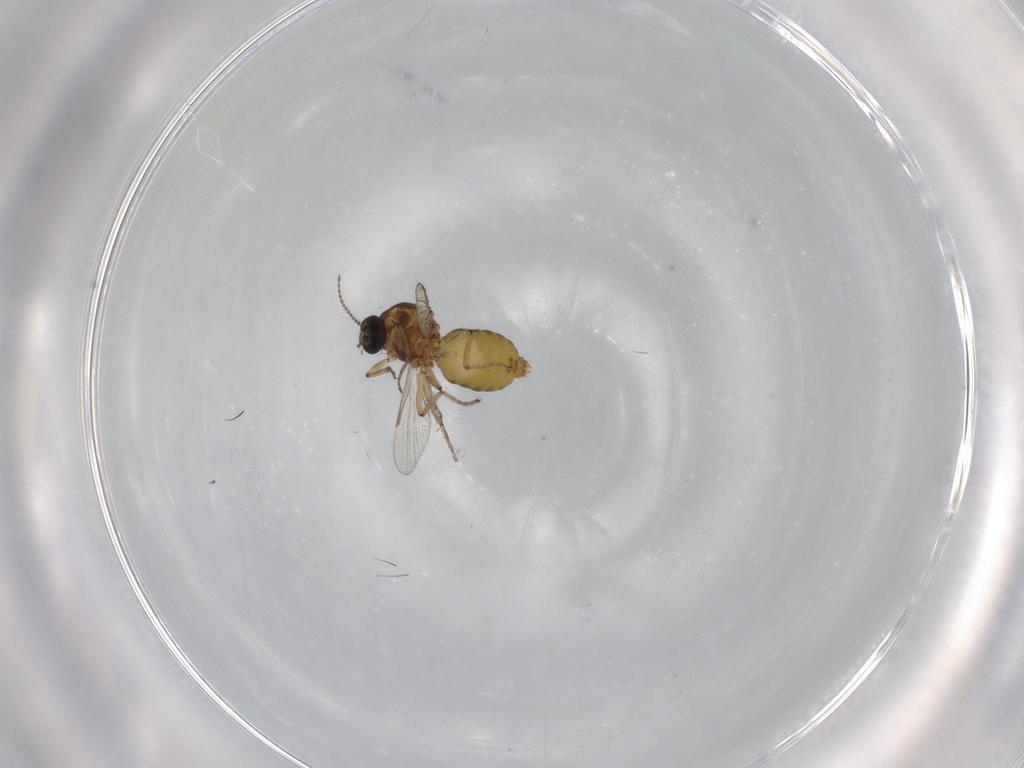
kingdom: Animalia
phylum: Arthropoda
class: Insecta
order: Diptera
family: Ceratopogonidae
